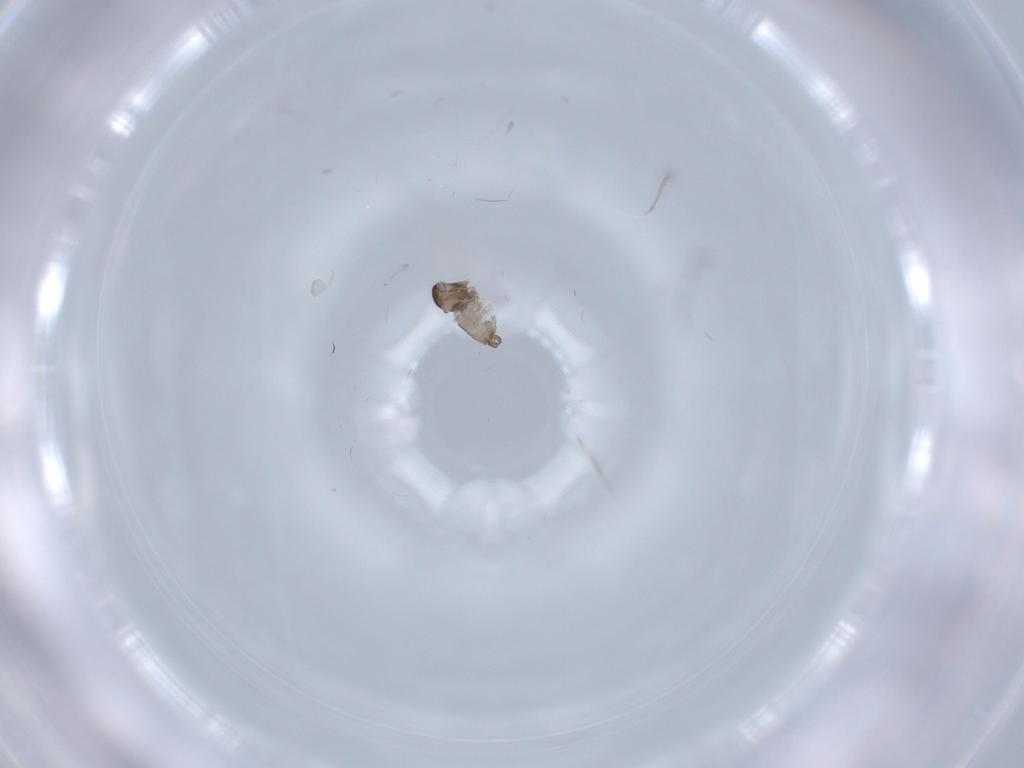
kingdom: Animalia
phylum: Arthropoda
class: Insecta
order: Diptera
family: Cecidomyiidae
